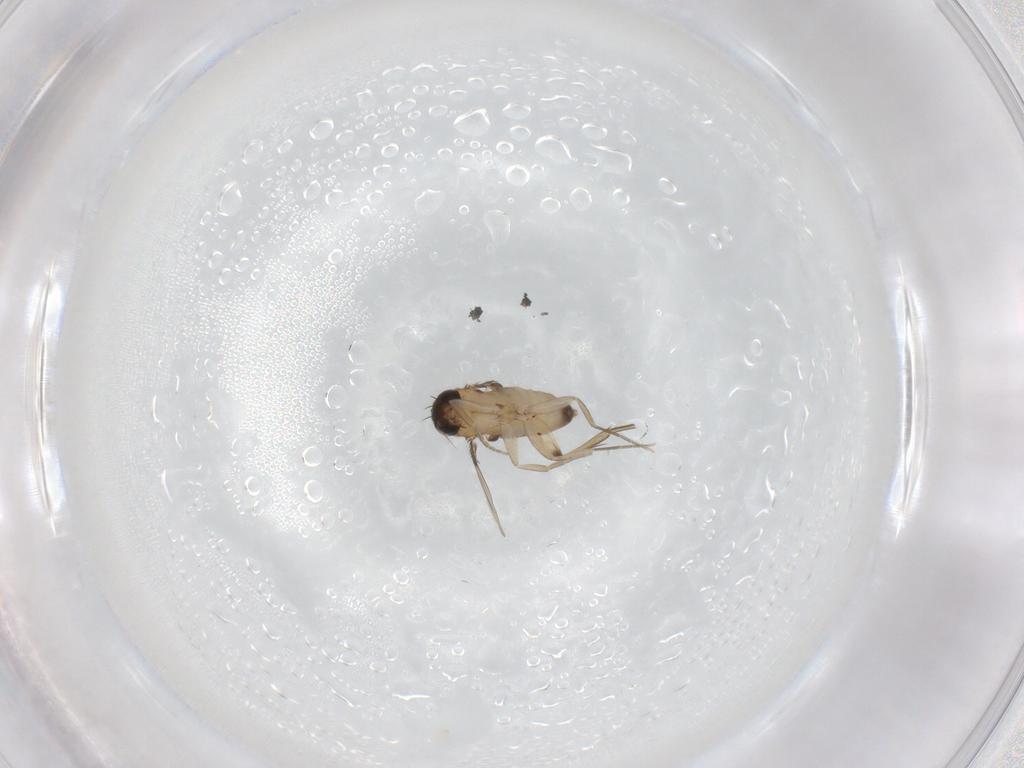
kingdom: Animalia
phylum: Arthropoda
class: Insecta
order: Diptera
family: Phoridae
